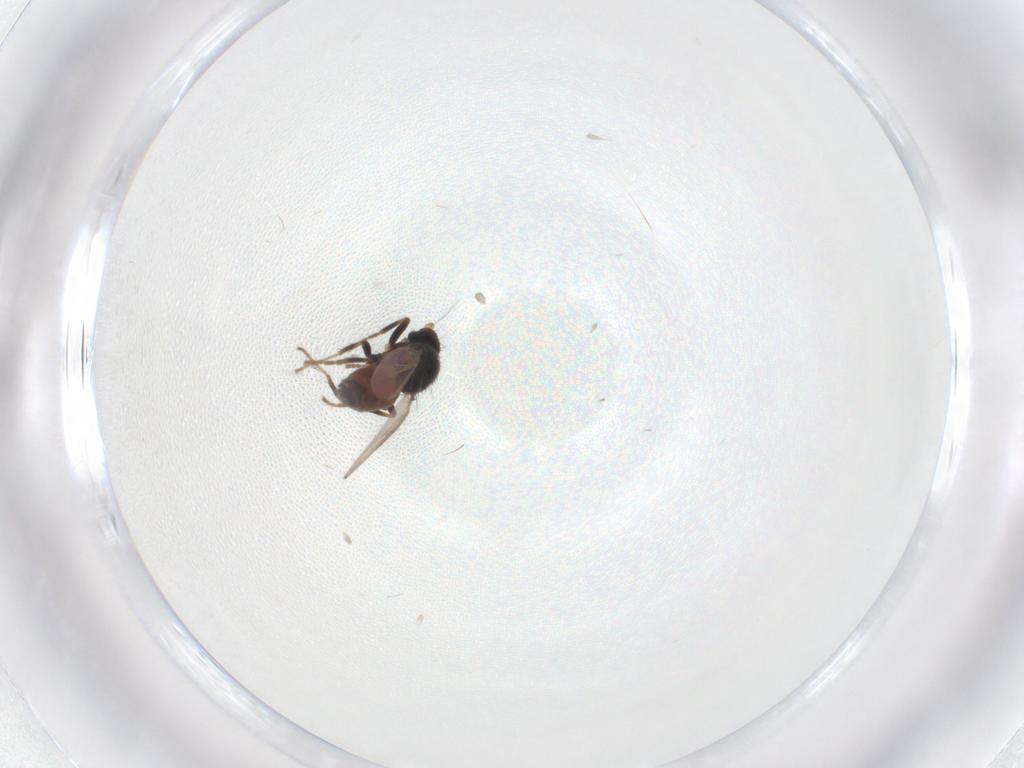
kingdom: Animalia
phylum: Arthropoda
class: Insecta
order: Diptera
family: Sphaeroceridae
